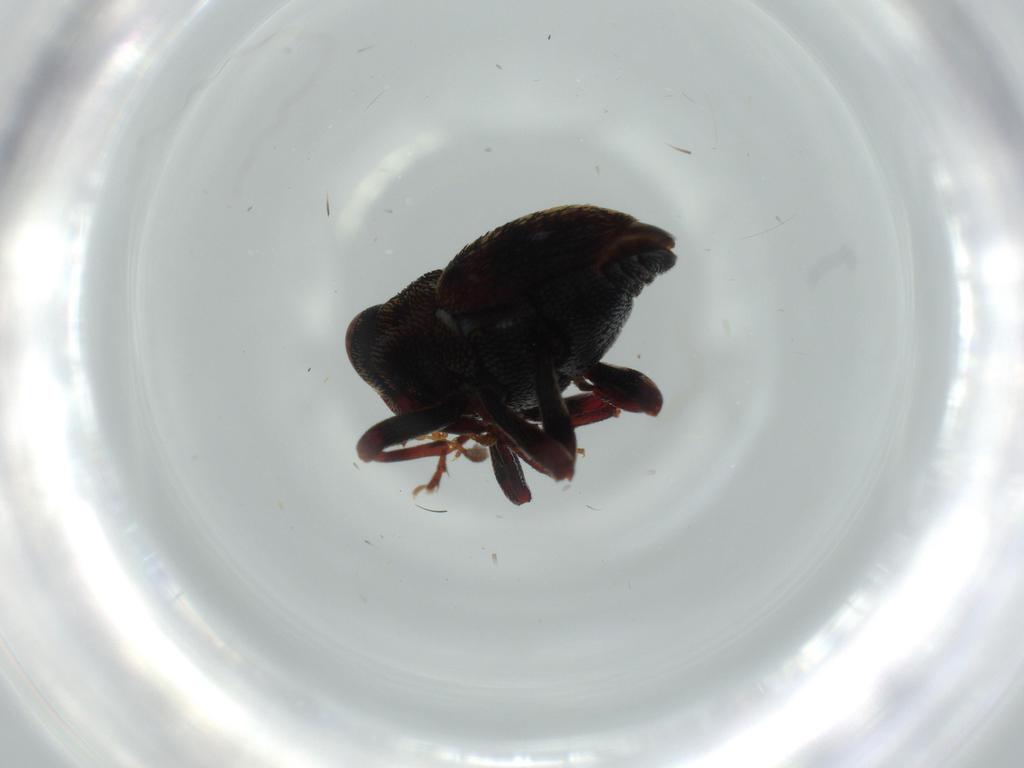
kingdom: Animalia
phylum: Arthropoda
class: Insecta
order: Coleoptera
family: Curculionidae
